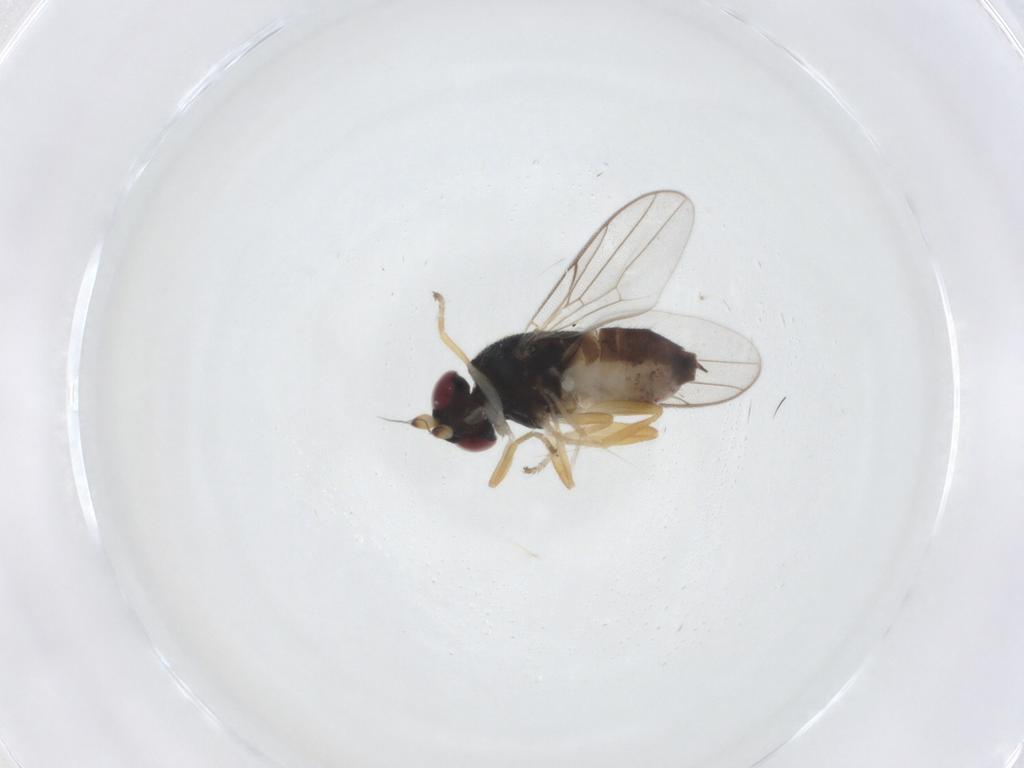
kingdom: Animalia
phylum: Arthropoda
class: Insecta
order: Diptera
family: Chloropidae
